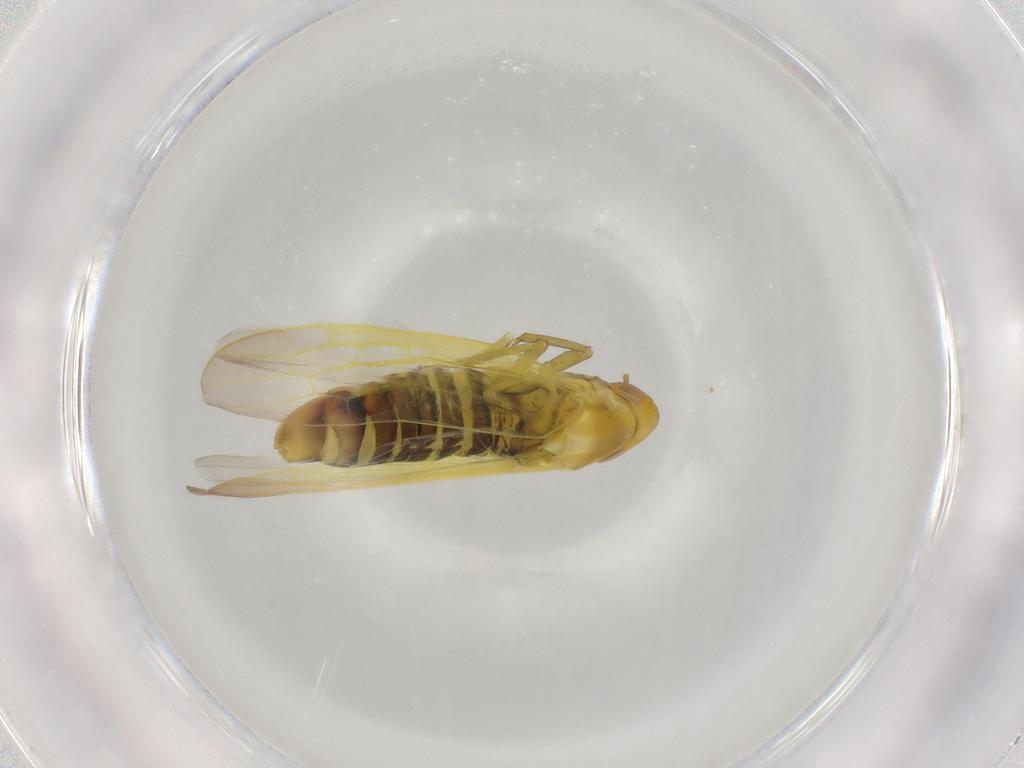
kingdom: Animalia
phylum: Arthropoda
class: Insecta
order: Hemiptera
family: Cicadellidae
